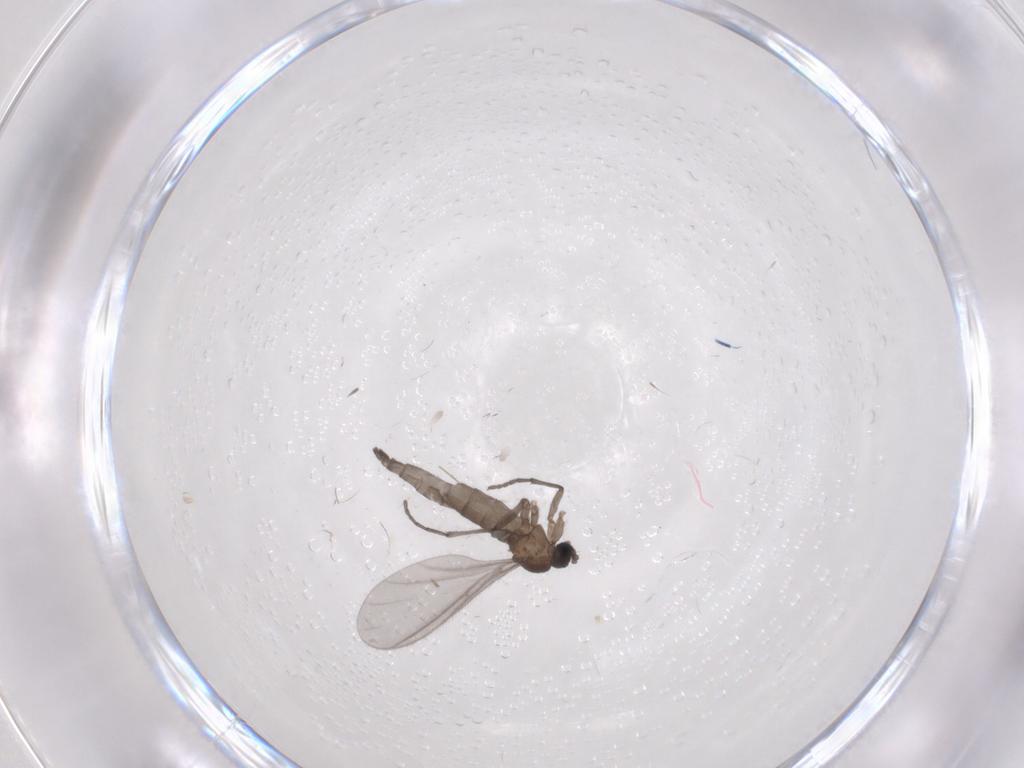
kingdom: Animalia
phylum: Arthropoda
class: Insecta
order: Diptera
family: Sciaridae
